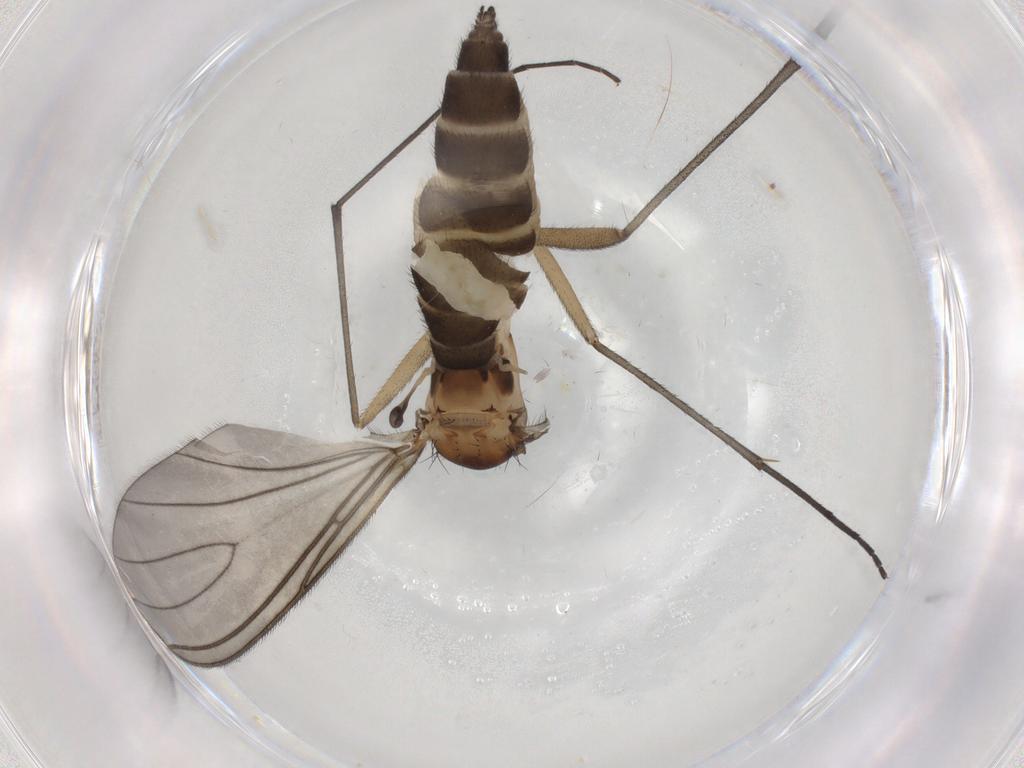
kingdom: Animalia
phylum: Arthropoda
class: Insecta
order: Diptera
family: Sciaridae
